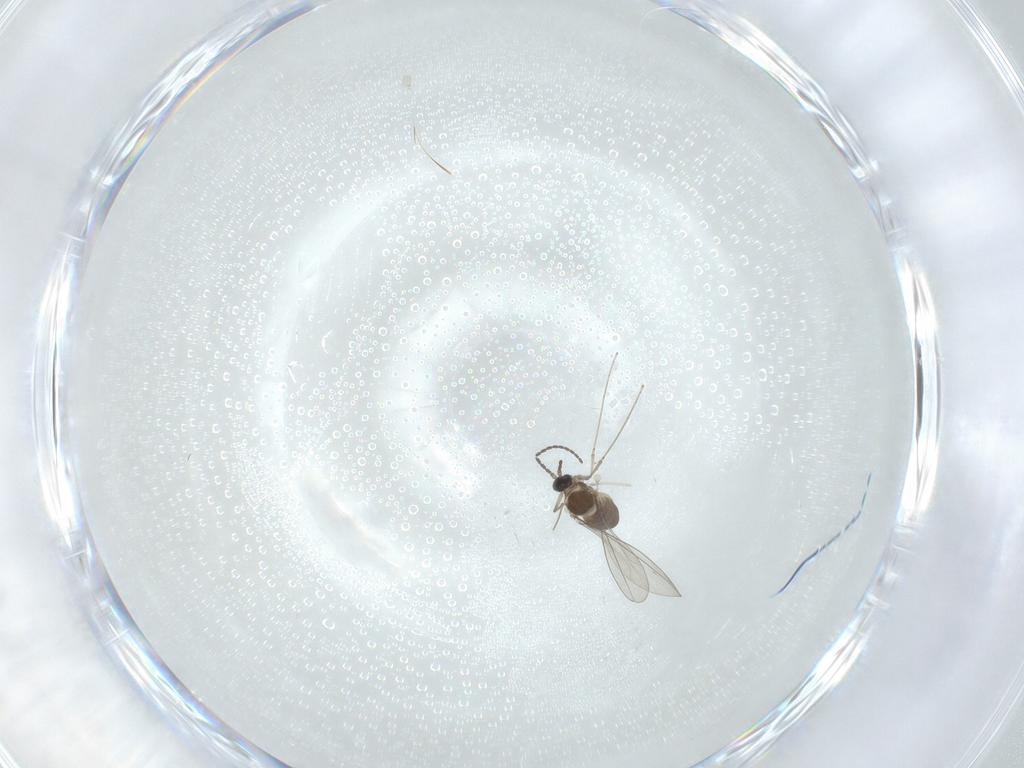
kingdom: Animalia
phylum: Arthropoda
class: Insecta
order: Diptera
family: Cecidomyiidae
